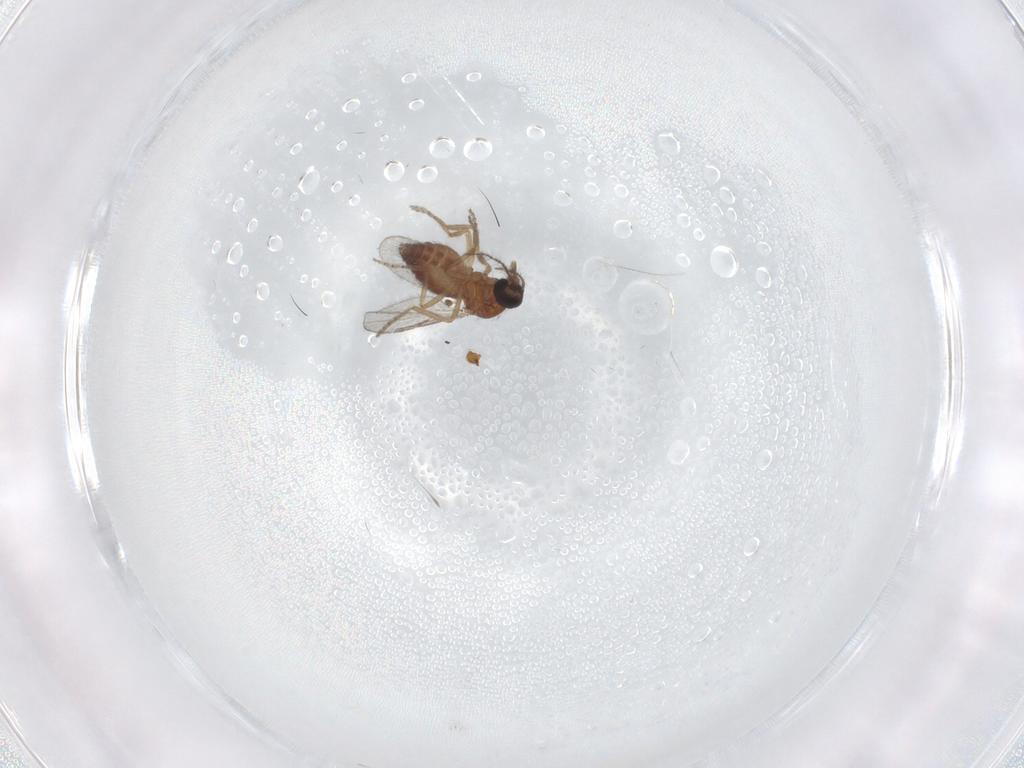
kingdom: Animalia
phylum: Arthropoda
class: Insecta
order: Diptera
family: Ceratopogonidae
